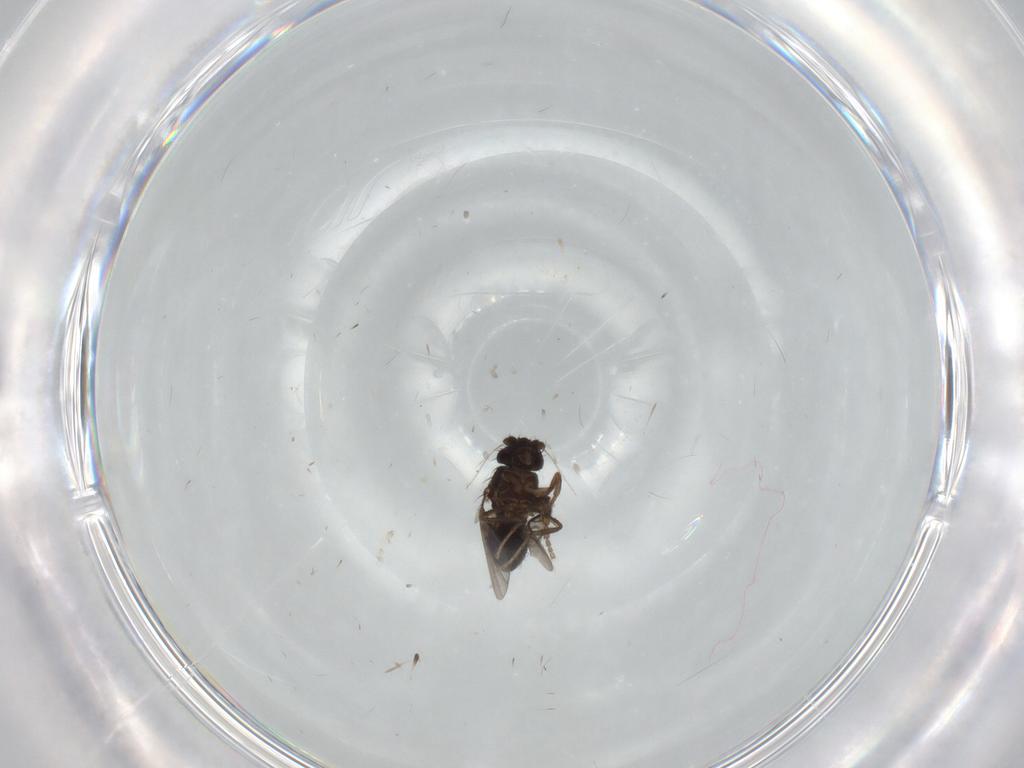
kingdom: Animalia
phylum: Arthropoda
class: Insecta
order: Diptera
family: Sphaeroceridae
